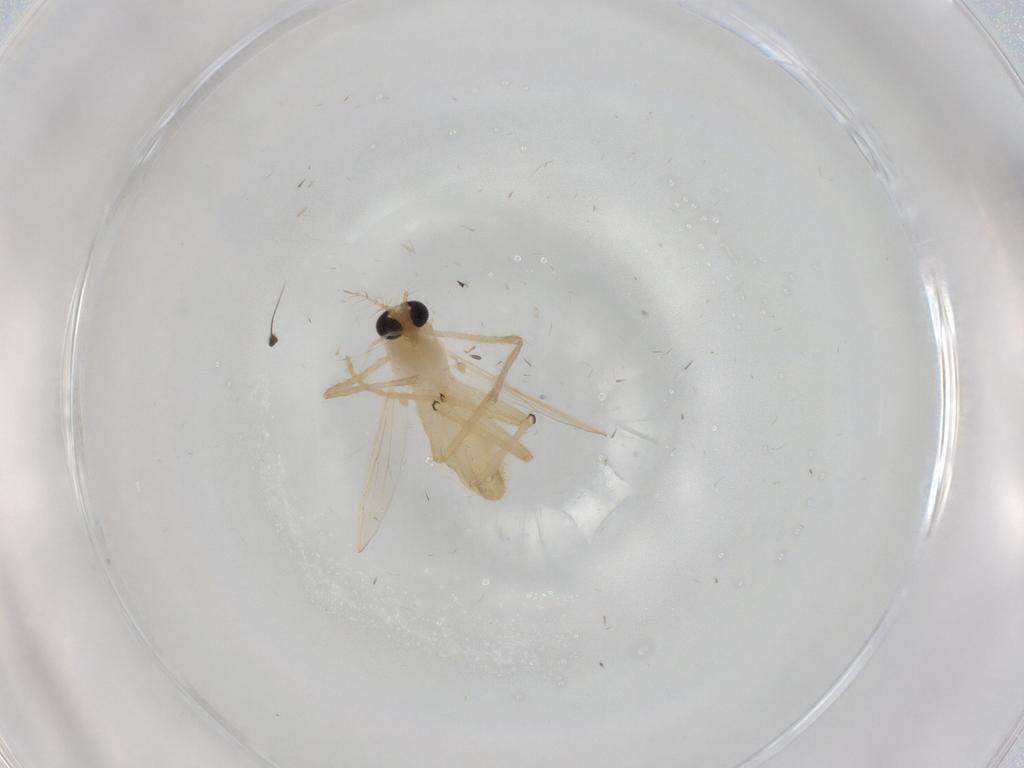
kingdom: Animalia
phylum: Arthropoda
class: Insecta
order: Diptera
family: Chironomidae
